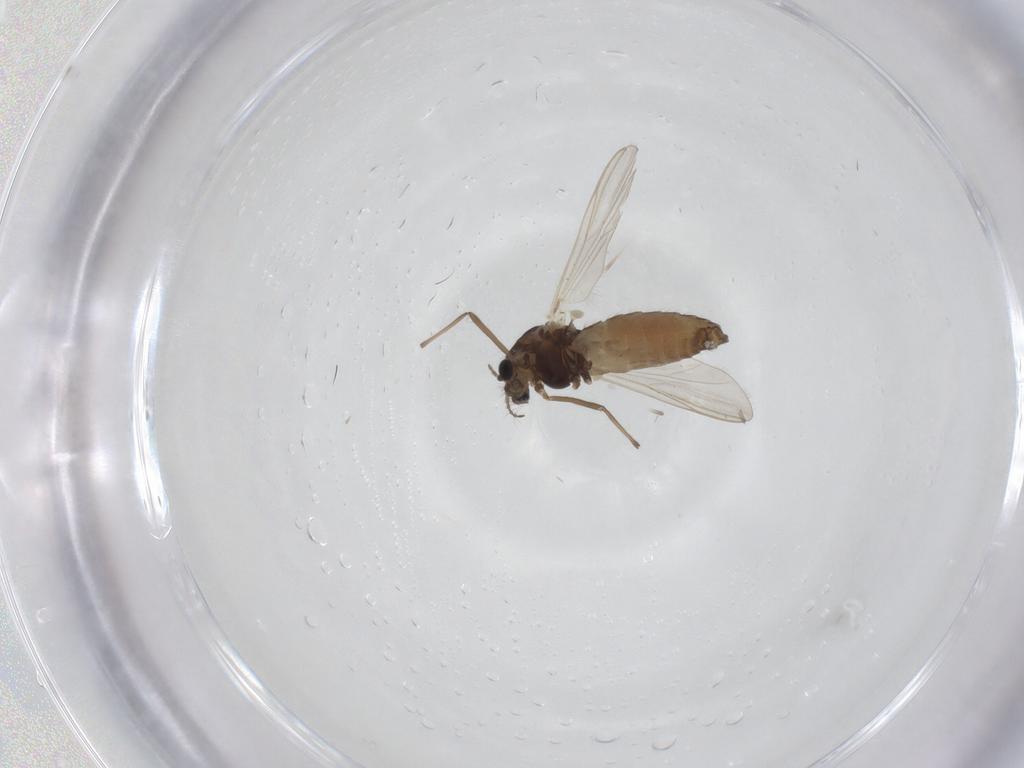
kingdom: Animalia
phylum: Arthropoda
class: Insecta
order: Diptera
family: Chironomidae
